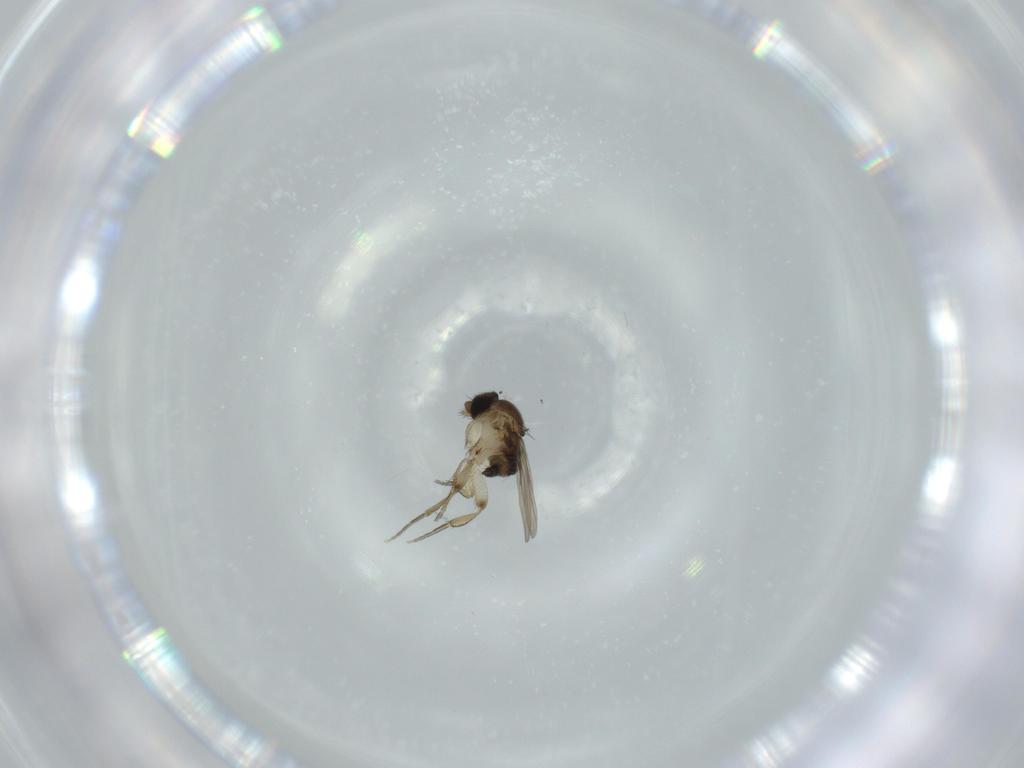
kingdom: Animalia
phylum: Arthropoda
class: Insecta
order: Diptera
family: Phoridae
